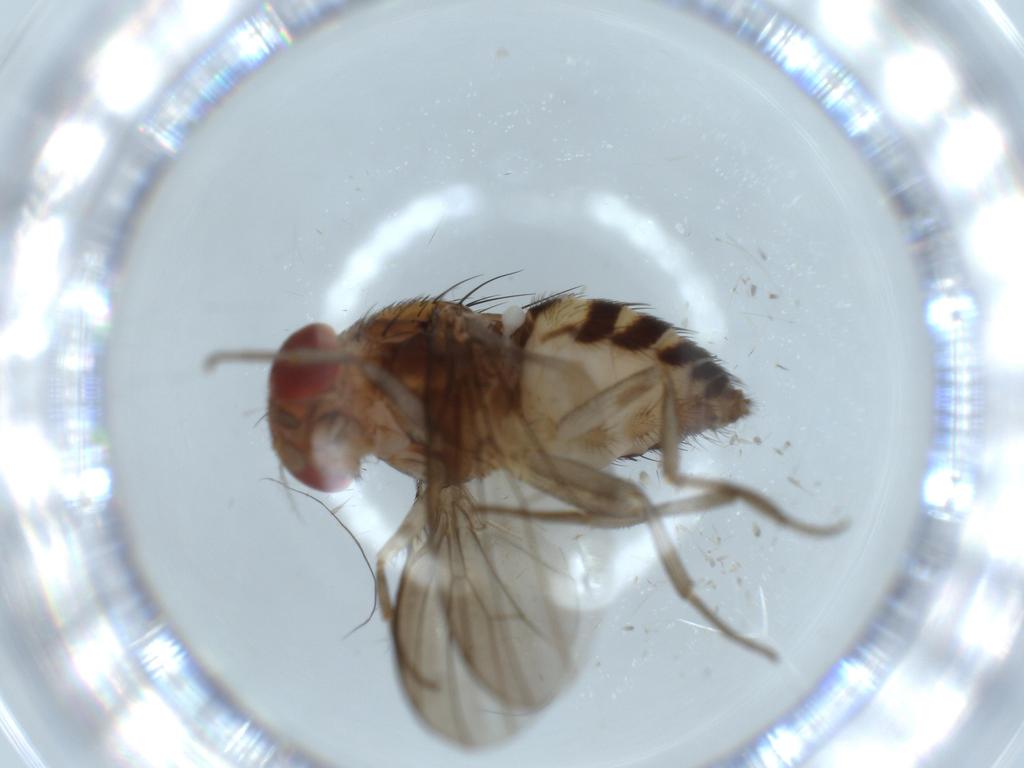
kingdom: Animalia
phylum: Arthropoda
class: Insecta
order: Diptera
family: Drosophilidae
